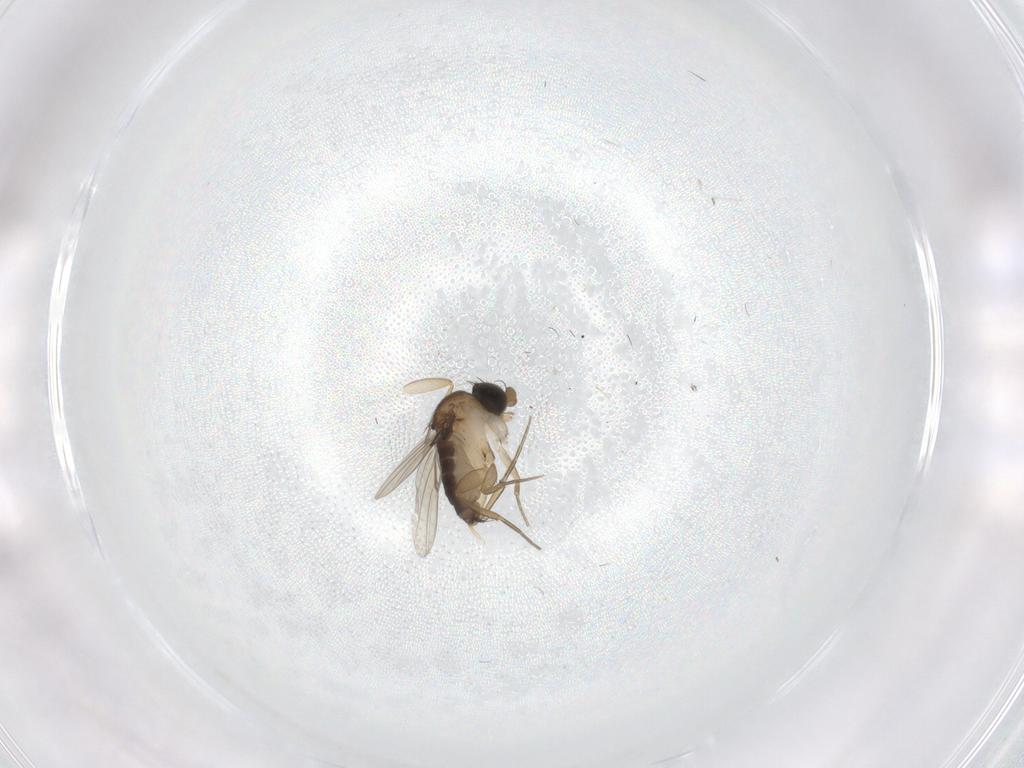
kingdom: Animalia
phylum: Arthropoda
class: Insecta
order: Diptera
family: Phoridae
